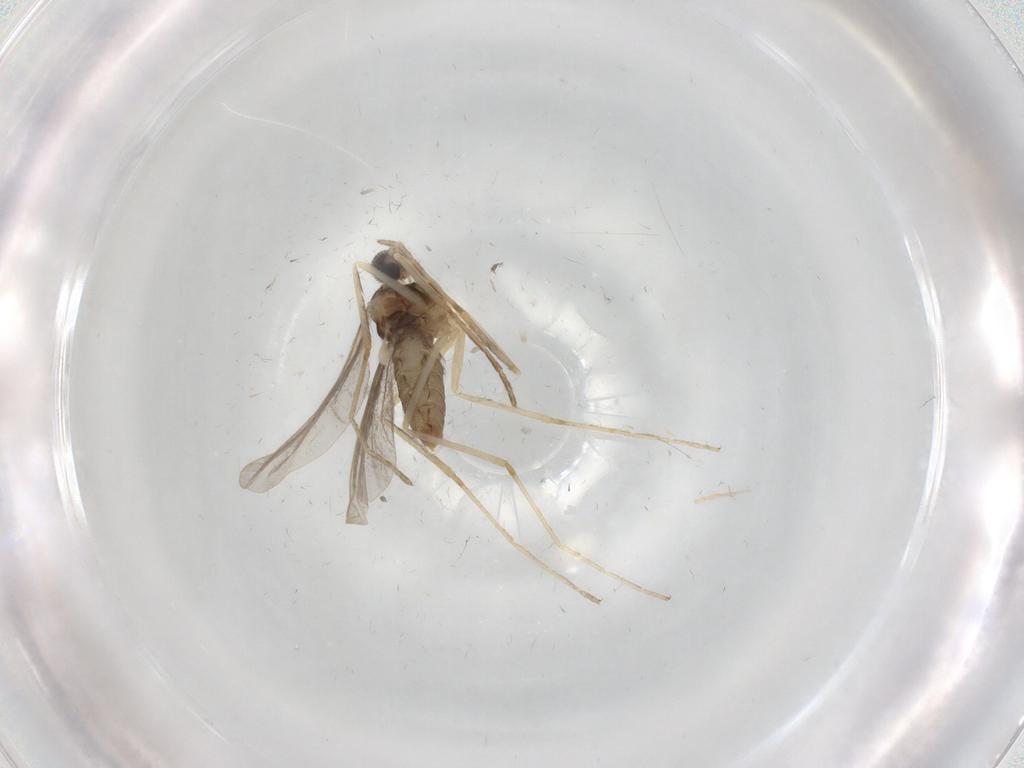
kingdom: Animalia
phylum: Arthropoda
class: Insecta
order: Diptera
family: Cecidomyiidae
